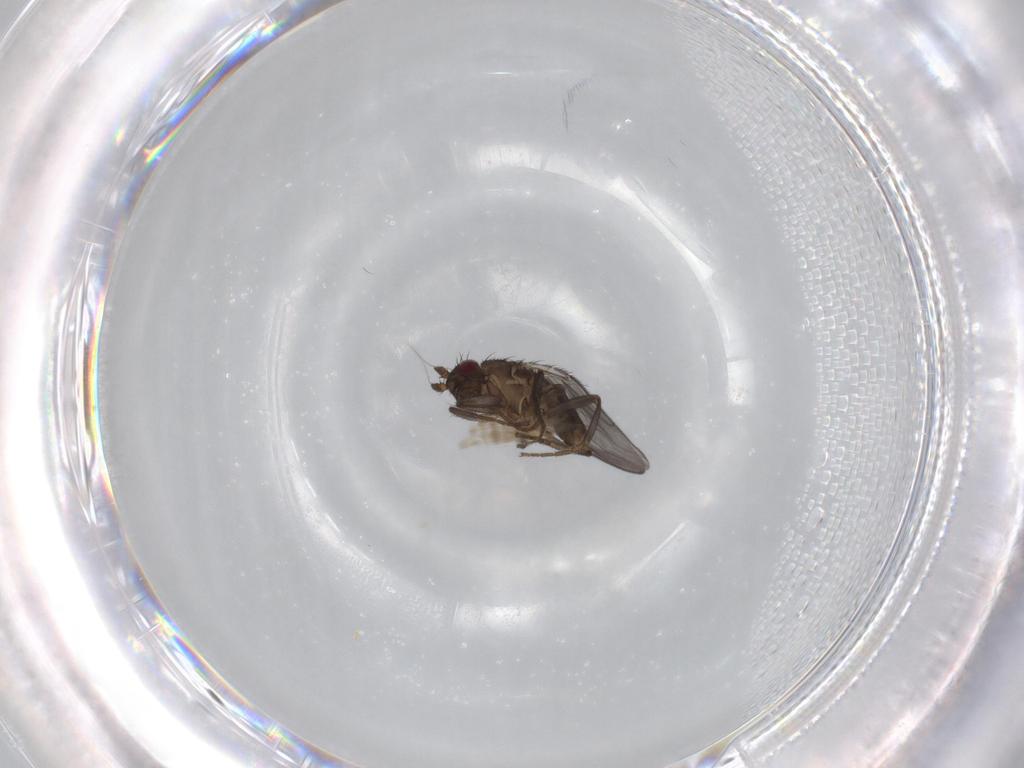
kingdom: Animalia
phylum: Arthropoda
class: Insecta
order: Diptera
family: Sphaeroceridae
